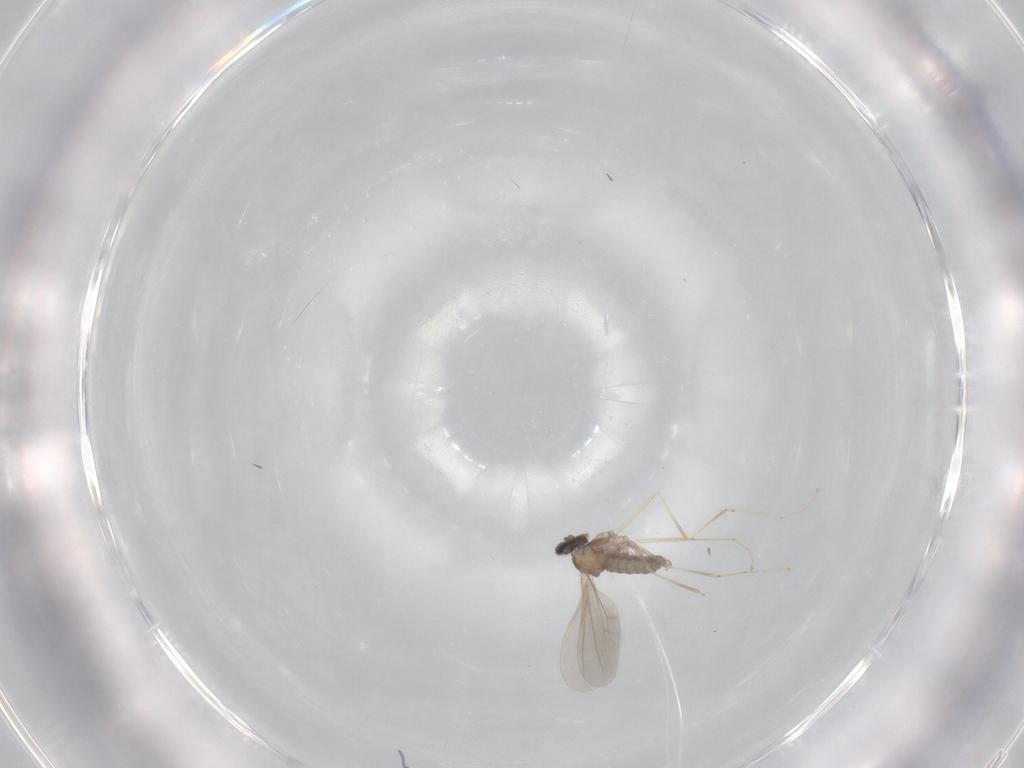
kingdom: Animalia
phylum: Arthropoda
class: Insecta
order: Diptera
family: Cecidomyiidae
